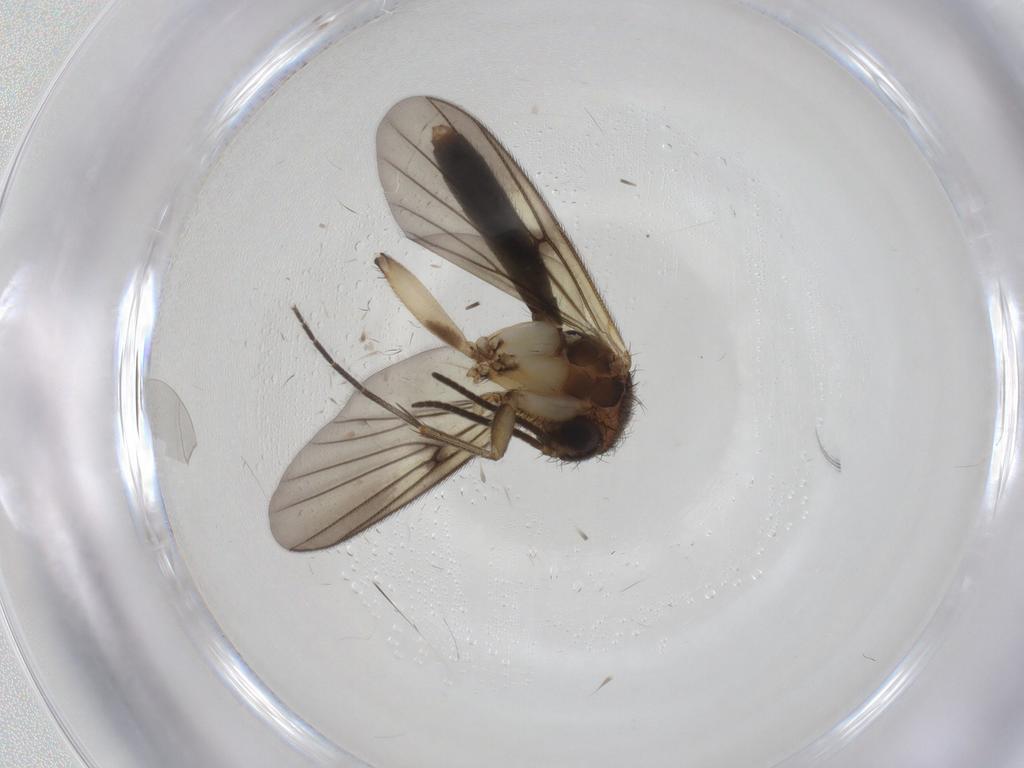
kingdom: Animalia
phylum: Arthropoda
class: Insecta
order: Diptera
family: Mycetophilidae
